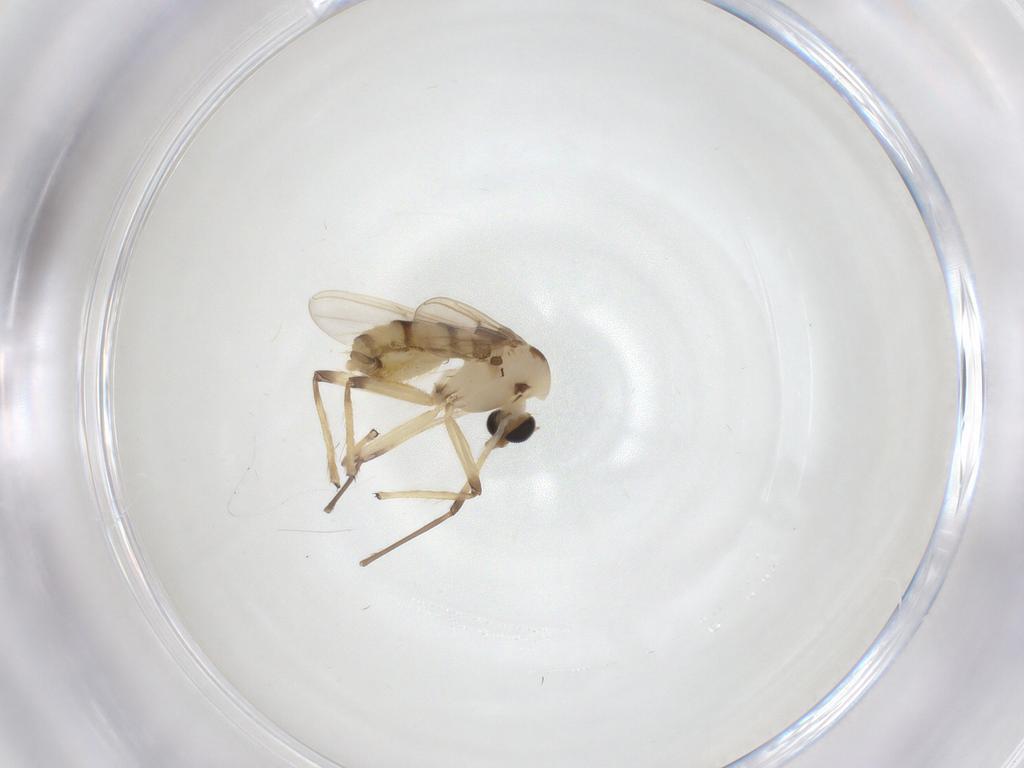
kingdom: Animalia
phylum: Arthropoda
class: Insecta
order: Diptera
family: Chironomidae
